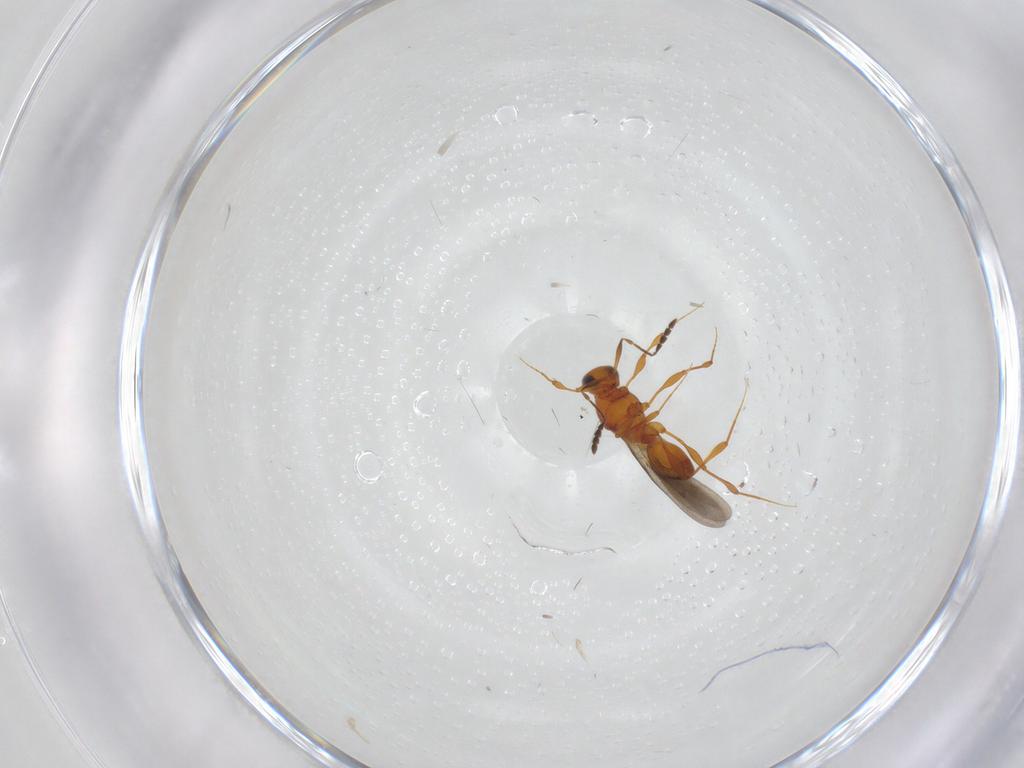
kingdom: Animalia
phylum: Arthropoda
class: Insecta
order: Hymenoptera
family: Platygastridae
